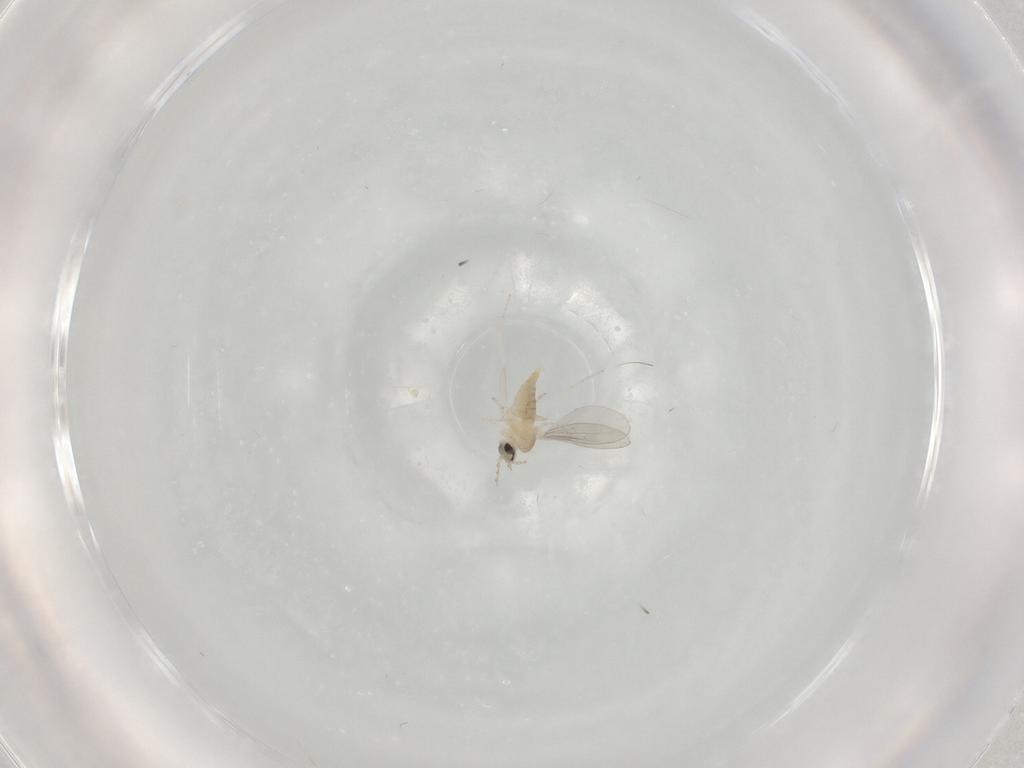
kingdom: Animalia
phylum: Arthropoda
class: Insecta
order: Diptera
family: Cecidomyiidae
